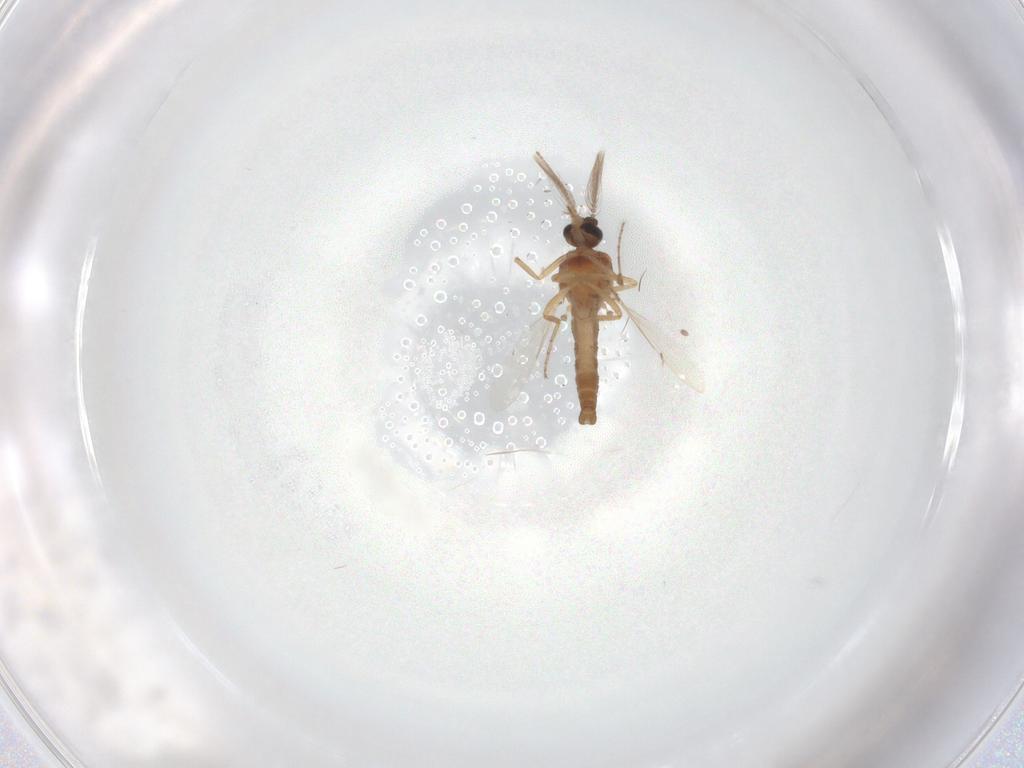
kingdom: Animalia
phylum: Arthropoda
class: Insecta
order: Diptera
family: Ceratopogonidae
